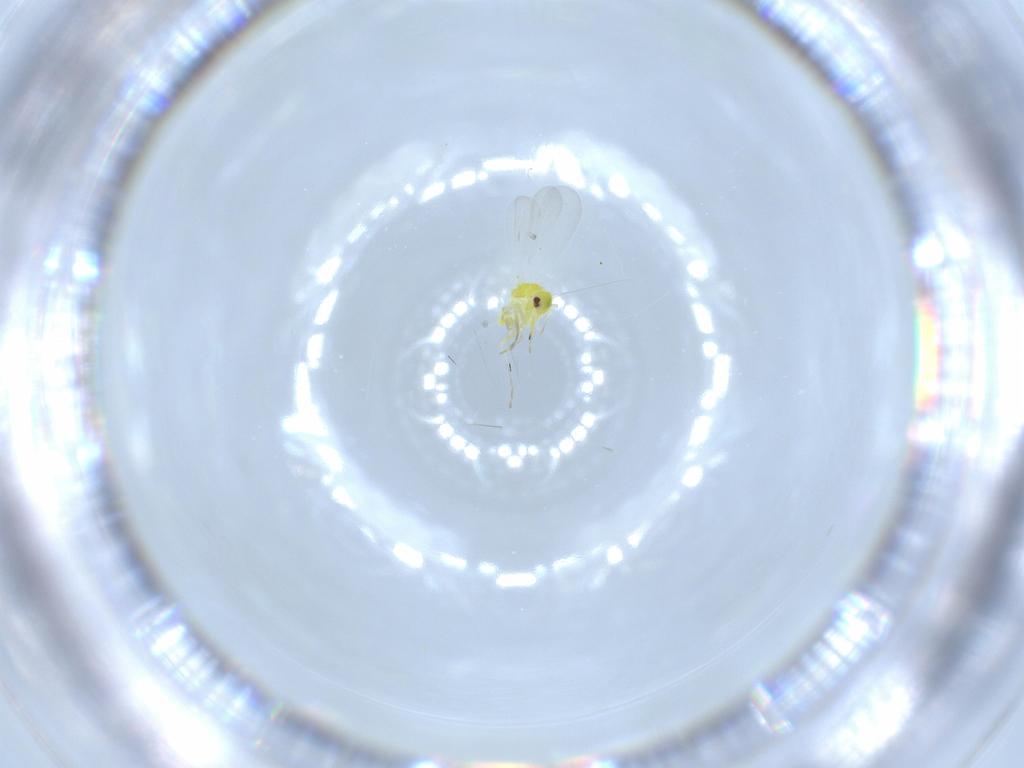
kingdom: Animalia
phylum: Arthropoda
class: Insecta
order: Hemiptera
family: Aleyrodidae
